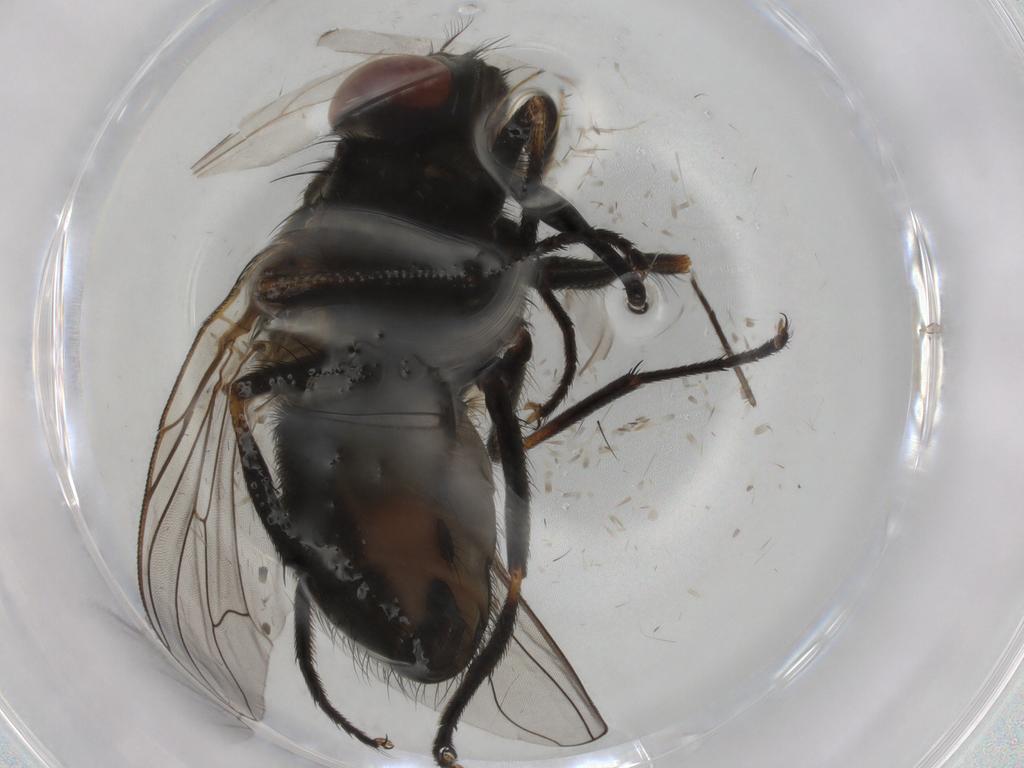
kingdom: Animalia
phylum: Arthropoda
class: Insecta
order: Diptera
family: Muscidae
